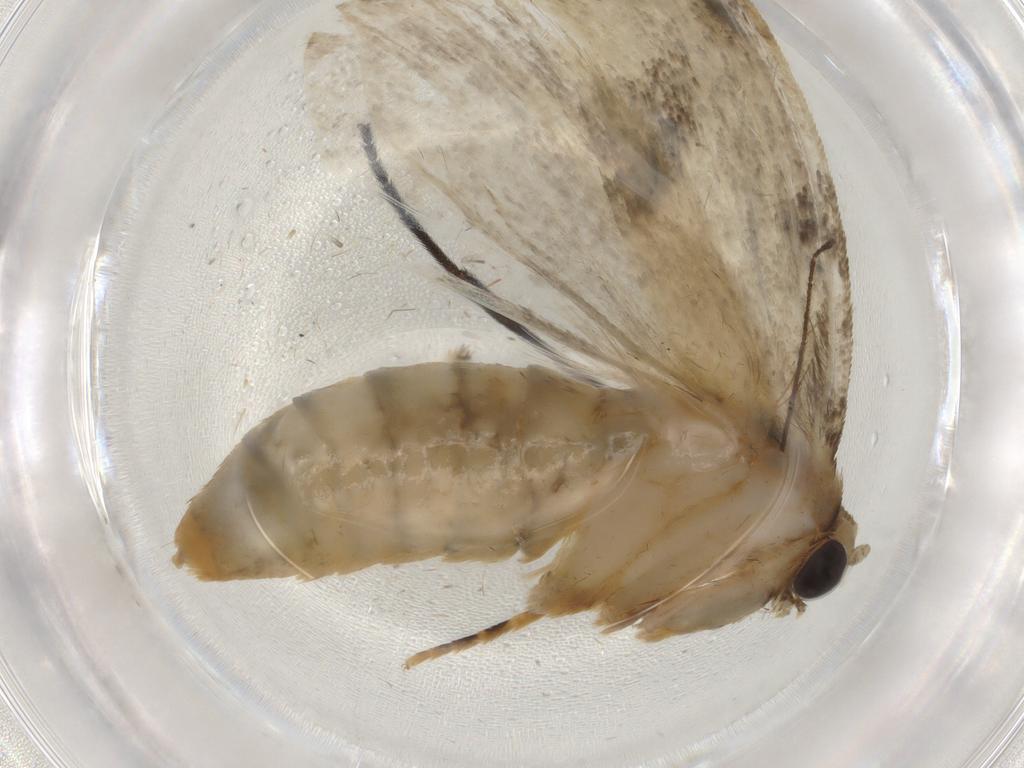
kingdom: Animalia
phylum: Arthropoda
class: Insecta
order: Lepidoptera
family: Tineidae
